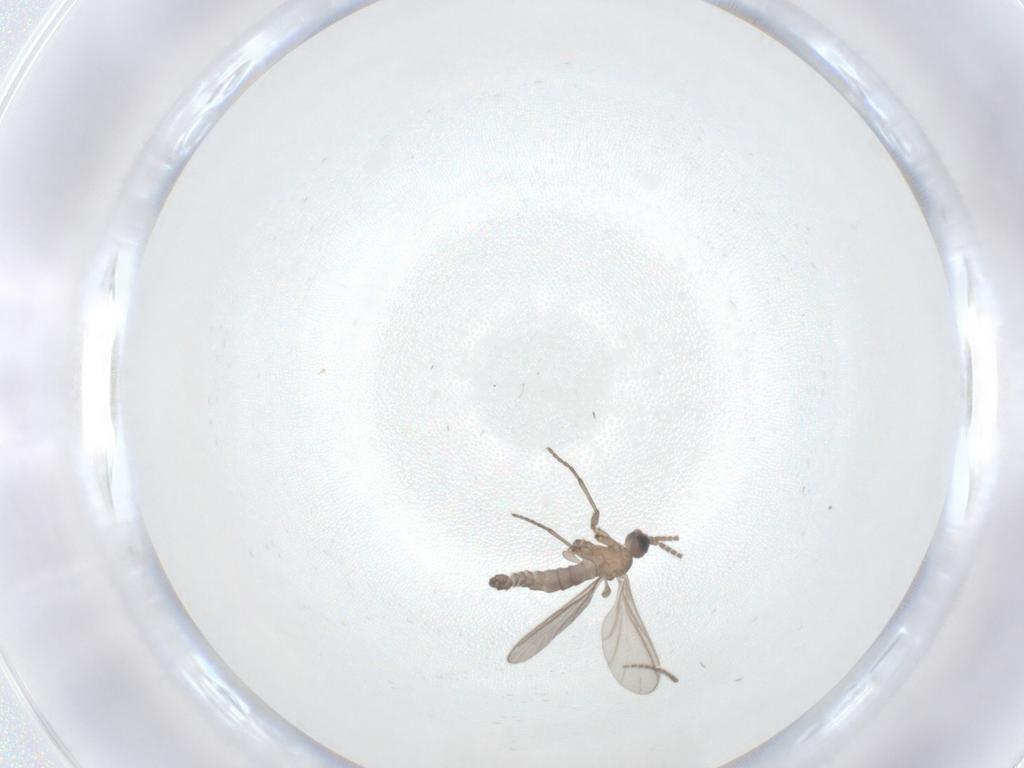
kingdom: Animalia
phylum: Arthropoda
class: Insecta
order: Diptera
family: Sciaridae
